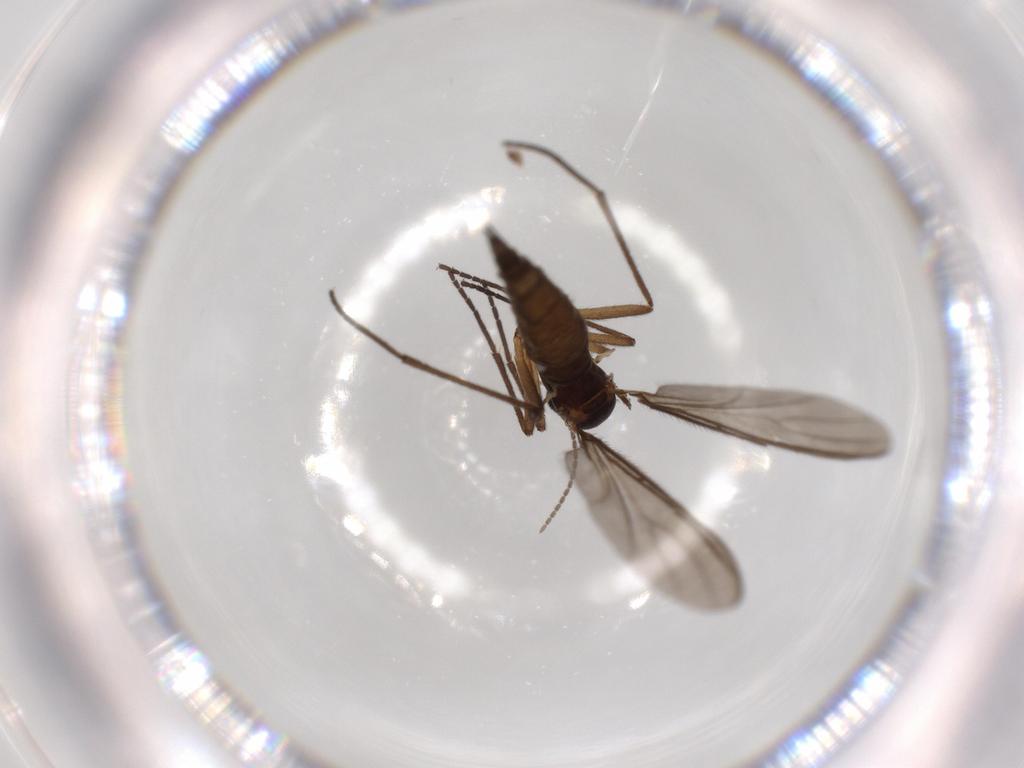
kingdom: Animalia
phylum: Arthropoda
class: Insecta
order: Diptera
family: Sciaridae
